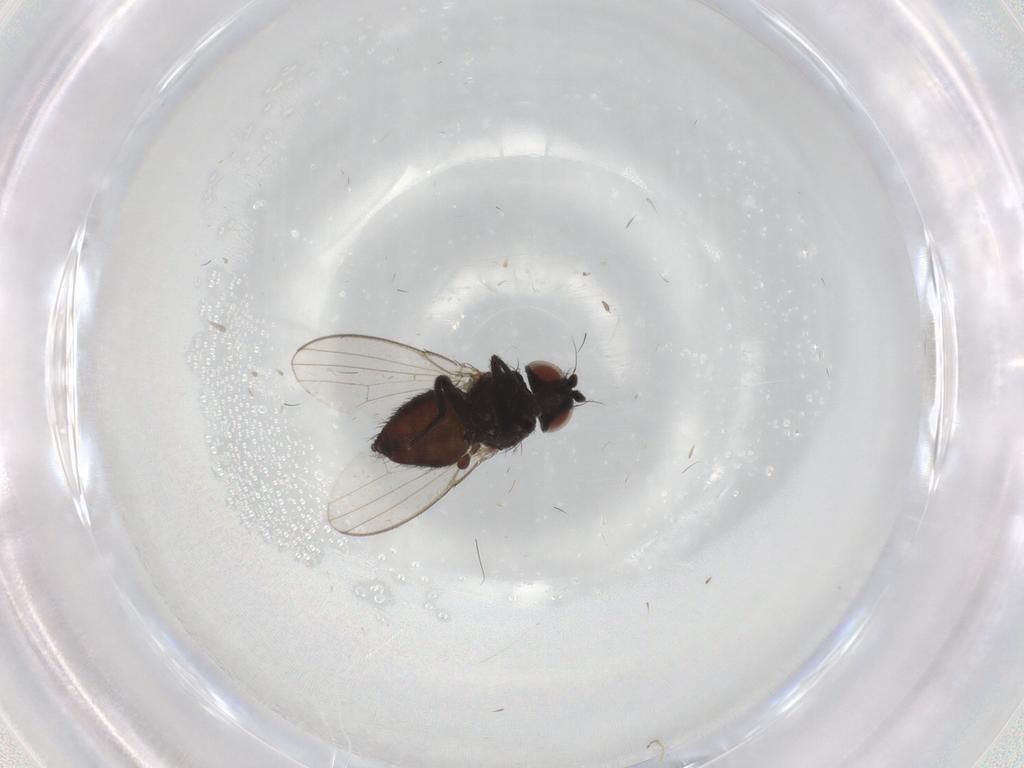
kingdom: Animalia
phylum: Arthropoda
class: Insecta
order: Diptera
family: Milichiidae
